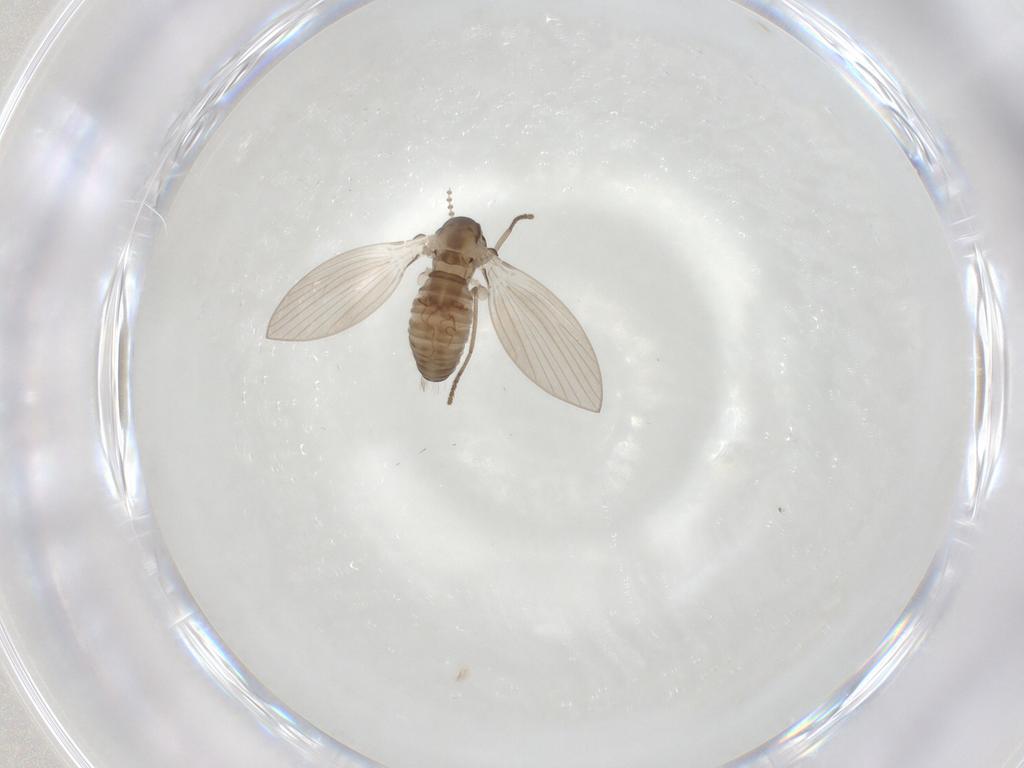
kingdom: Animalia
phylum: Arthropoda
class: Insecta
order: Diptera
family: Psychodidae
